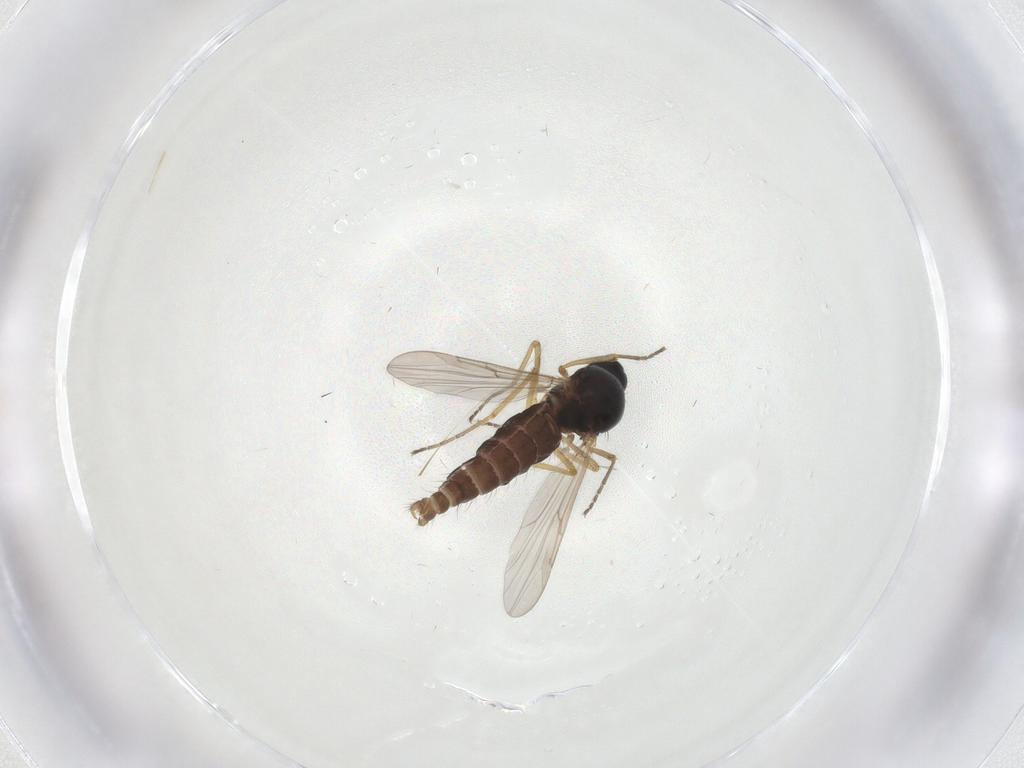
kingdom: Animalia
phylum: Arthropoda
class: Insecta
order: Diptera
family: Ceratopogonidae
